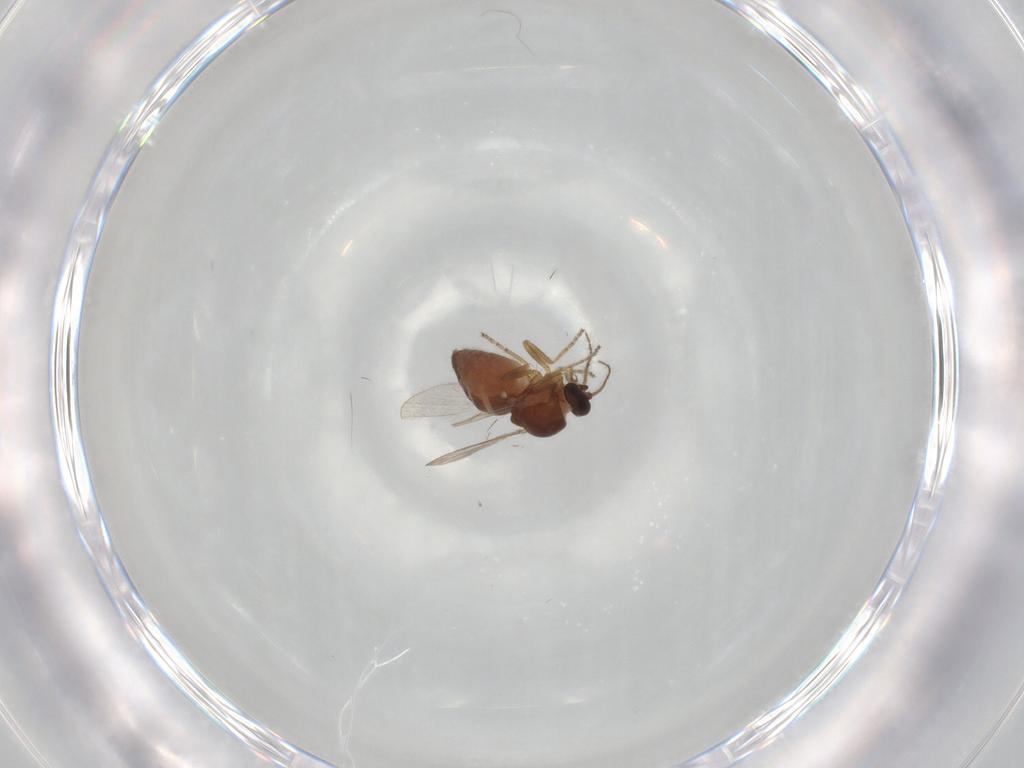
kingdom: Animalia
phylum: Arthropoda
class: Insecta
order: Diptera
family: Ceratopogonidae
